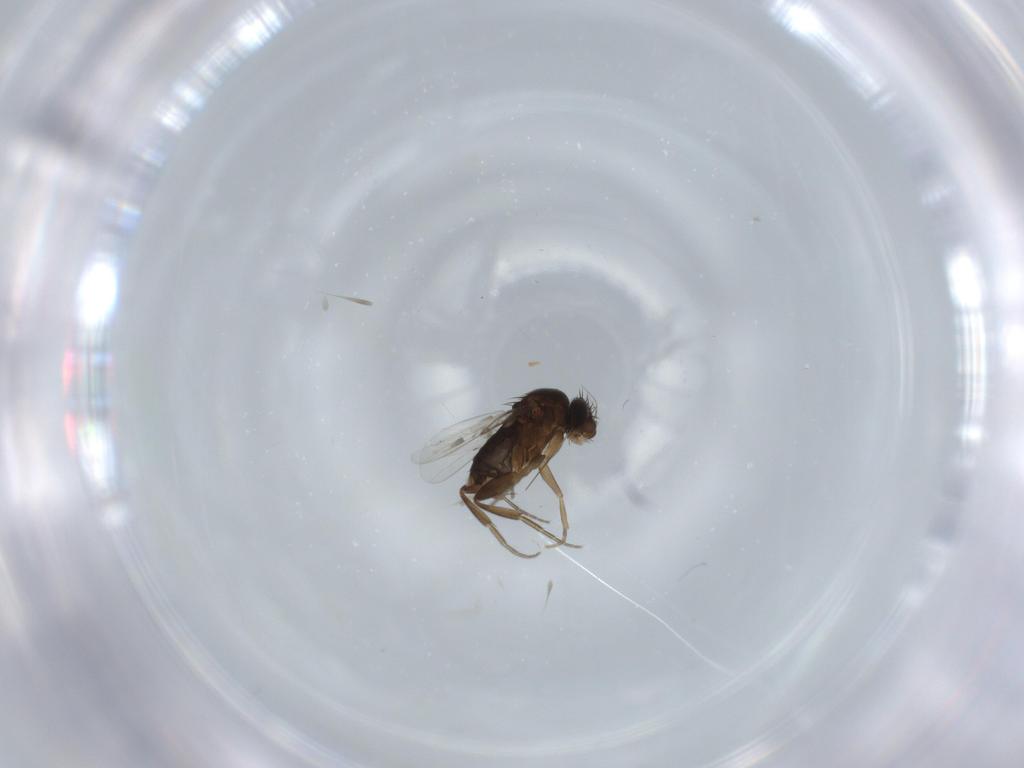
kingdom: Animalia
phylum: Arthropoda
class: Insecta
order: Diptera
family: Phoridae
